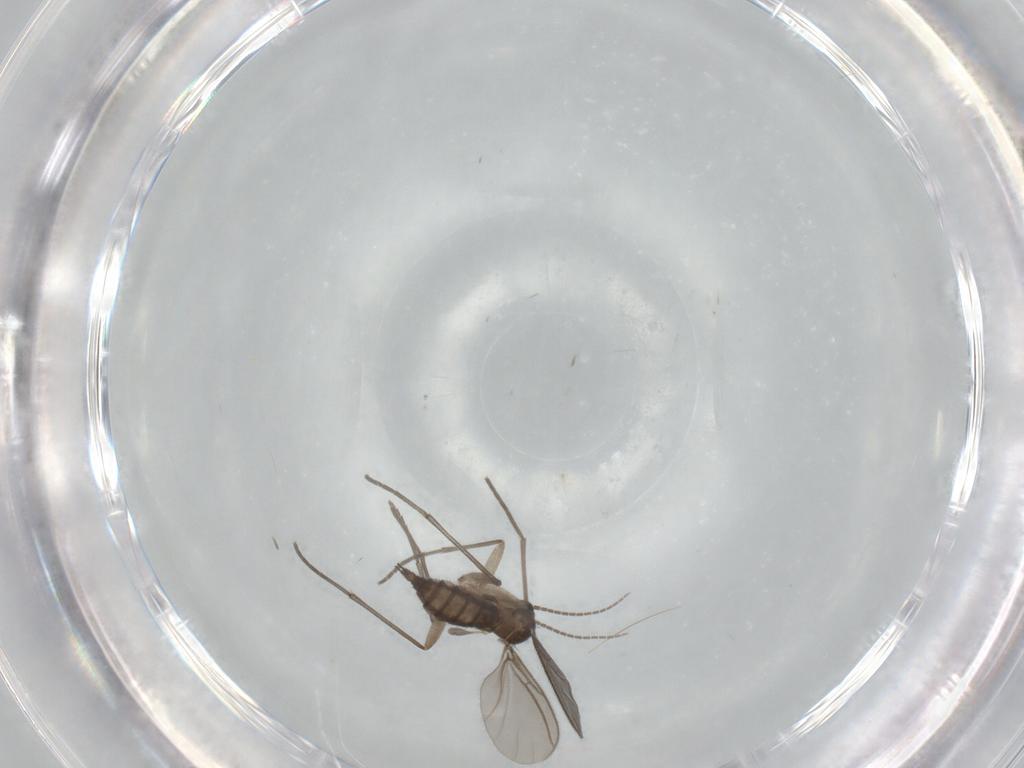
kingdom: Animalia
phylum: Arthropoda
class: Insecta
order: Diptera
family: Sciaridae
